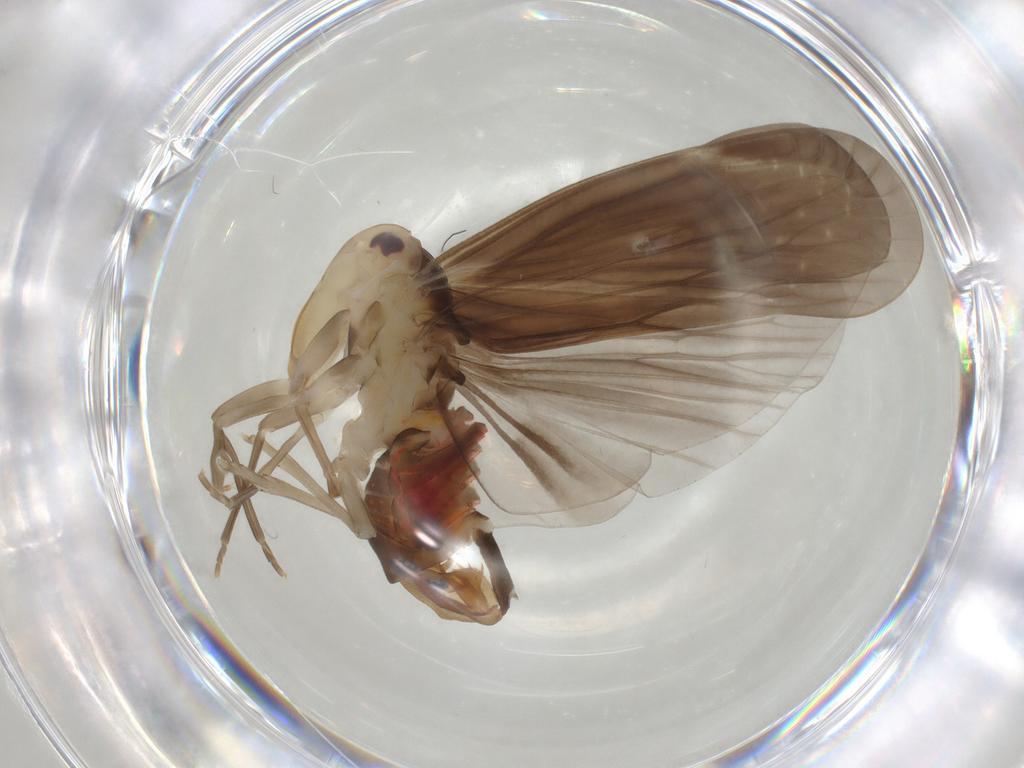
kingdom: Animalia
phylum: Arthropoda
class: Insecta
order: Hemiptera
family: Derbidae
